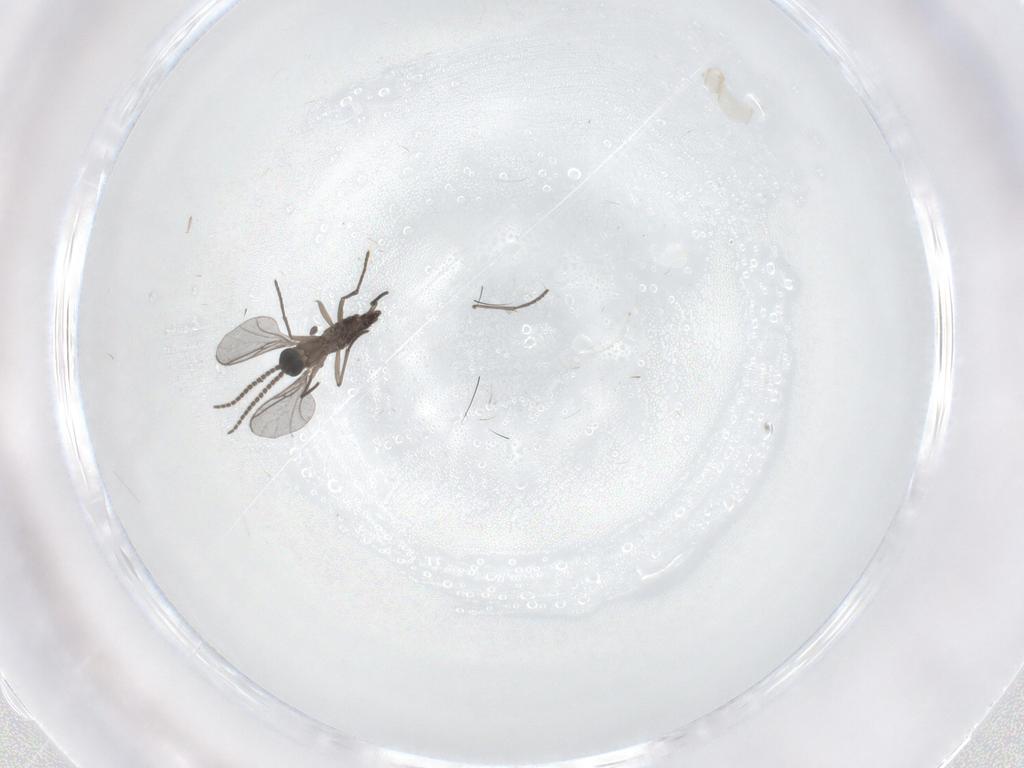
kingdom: Animalia
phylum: Arthropoda
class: Insecta
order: Diptera
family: Cecidomyiidae
